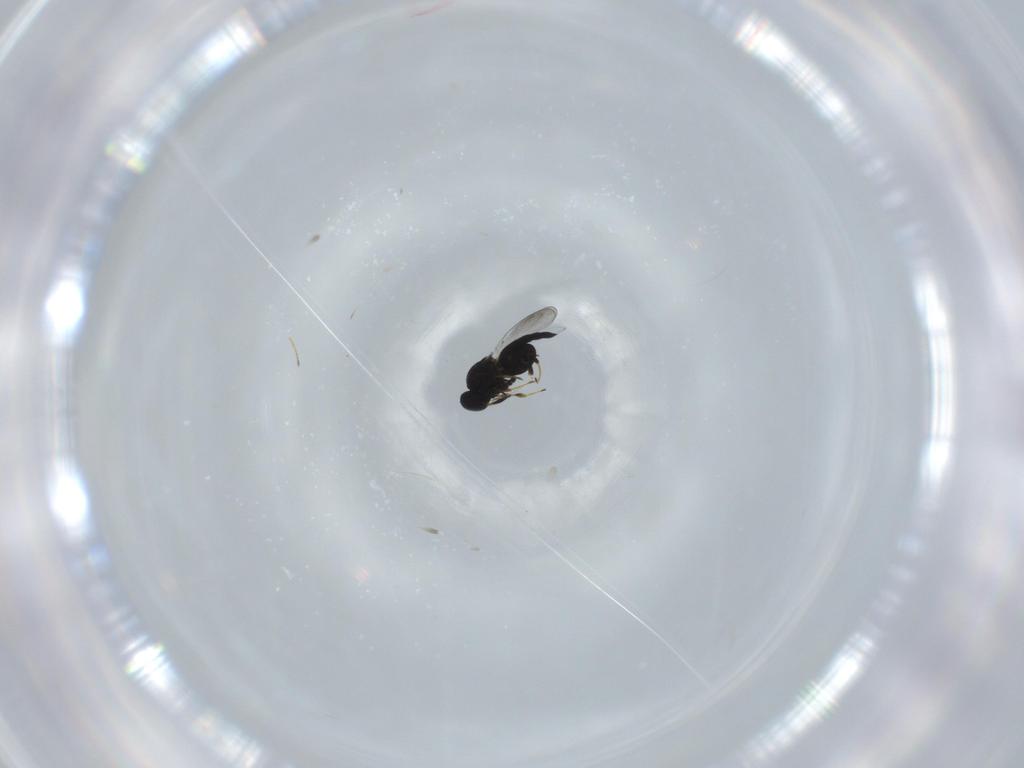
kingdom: Animalia
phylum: Arthropoda
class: Insecta
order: Hymenoptera
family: Platygastridae
